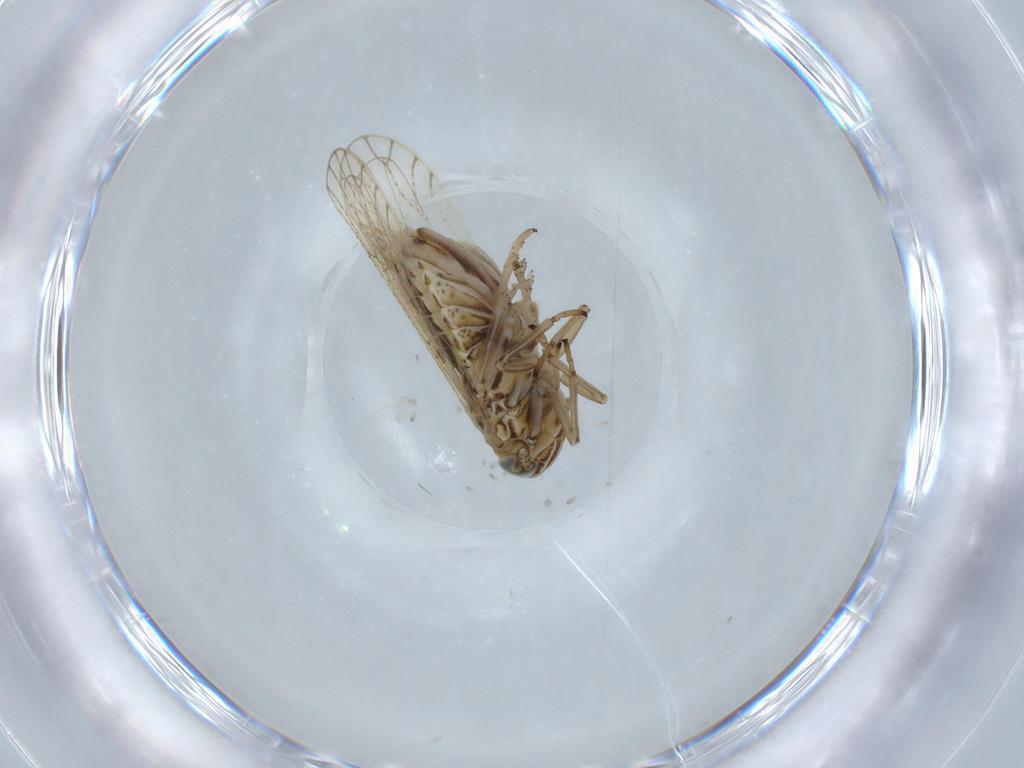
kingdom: Animalia
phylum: Arthropoda
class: Insecta
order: Hemiptera
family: Delphacidae
